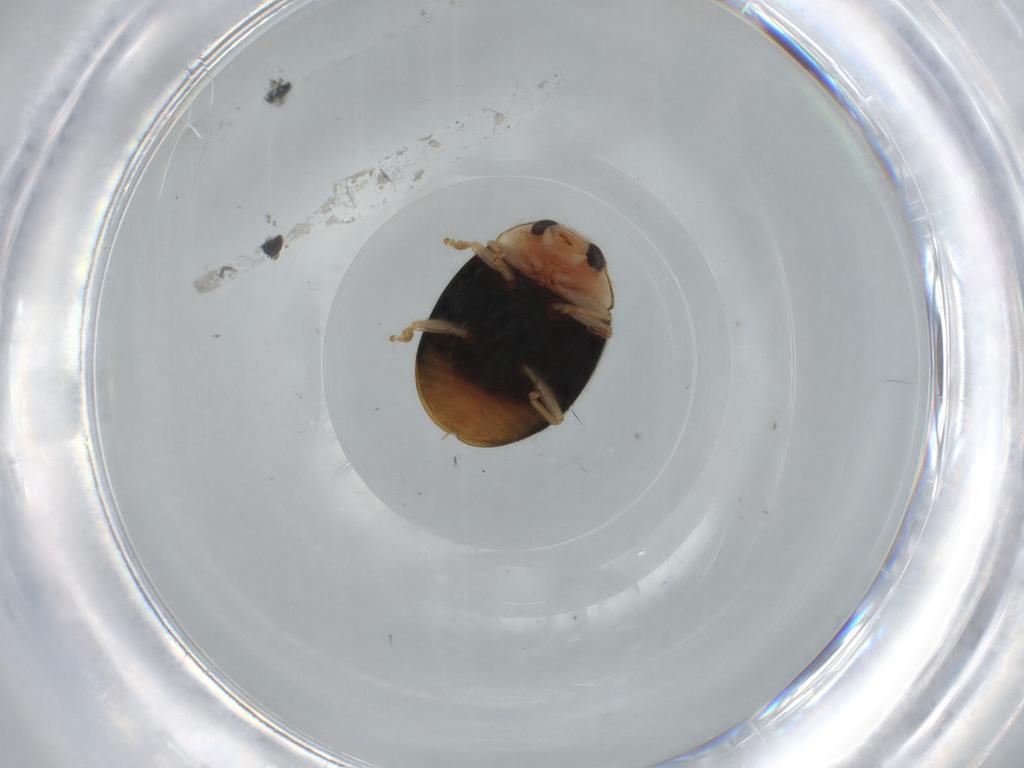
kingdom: Animalia
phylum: Arthropoda
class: Insecta
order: Coleoptera
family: Coccinellidae
